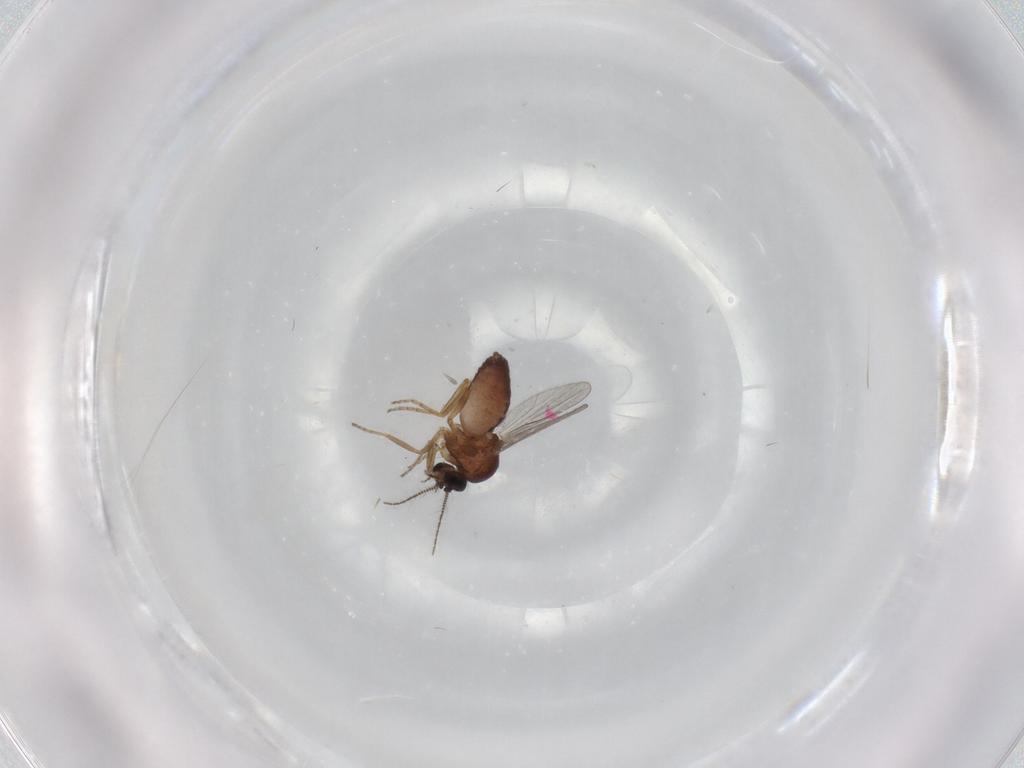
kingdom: Animalia
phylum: Arthropoda
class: Insecta
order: Diptera
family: Ceratopogonidae
